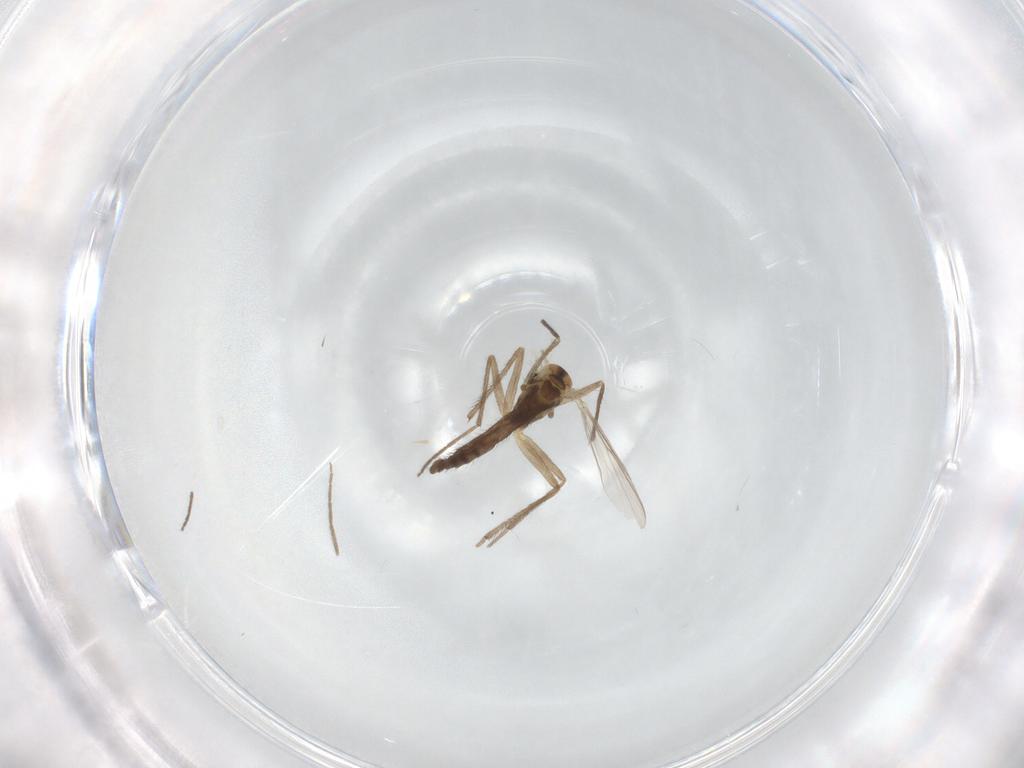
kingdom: Animalia
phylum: Arthropoda
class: Insecta
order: Diptera
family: Chironomidae
